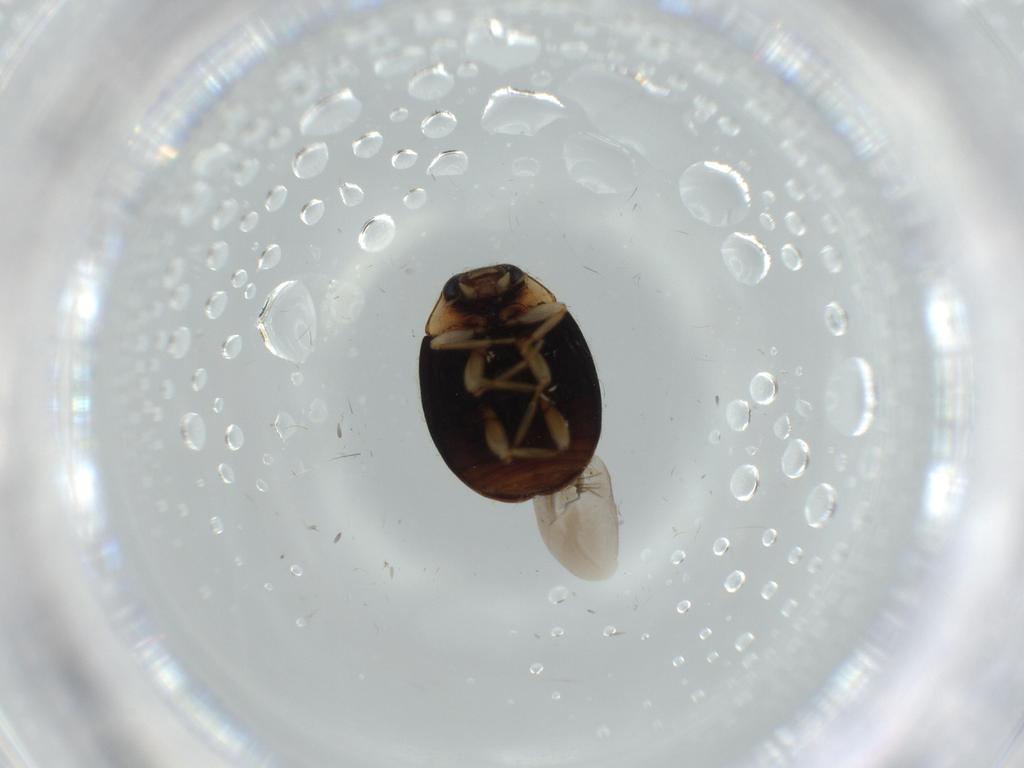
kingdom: Animalia
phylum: Arthropoda
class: Insecta
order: Coleoptera
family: Coccinellidae
